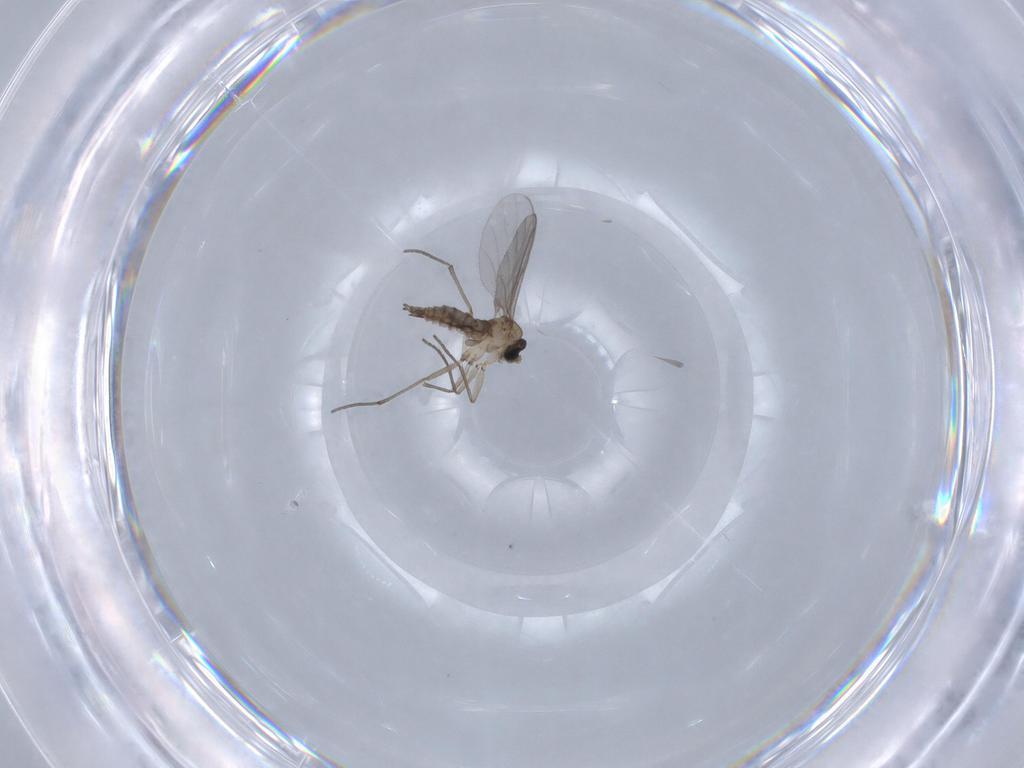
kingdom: Animalia
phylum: Arthropoda
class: Insecta
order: Diptera
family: Sciaridae
